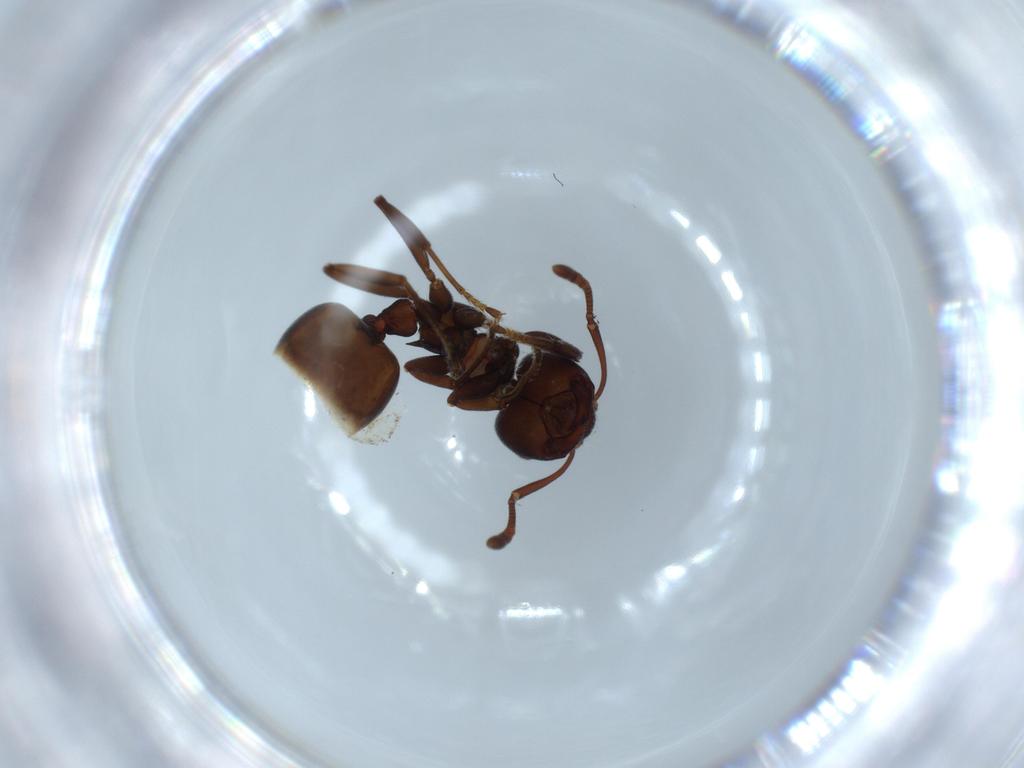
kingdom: Animalia
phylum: Arthropoda
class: Insecta
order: Hymenoptera
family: Formicidae
